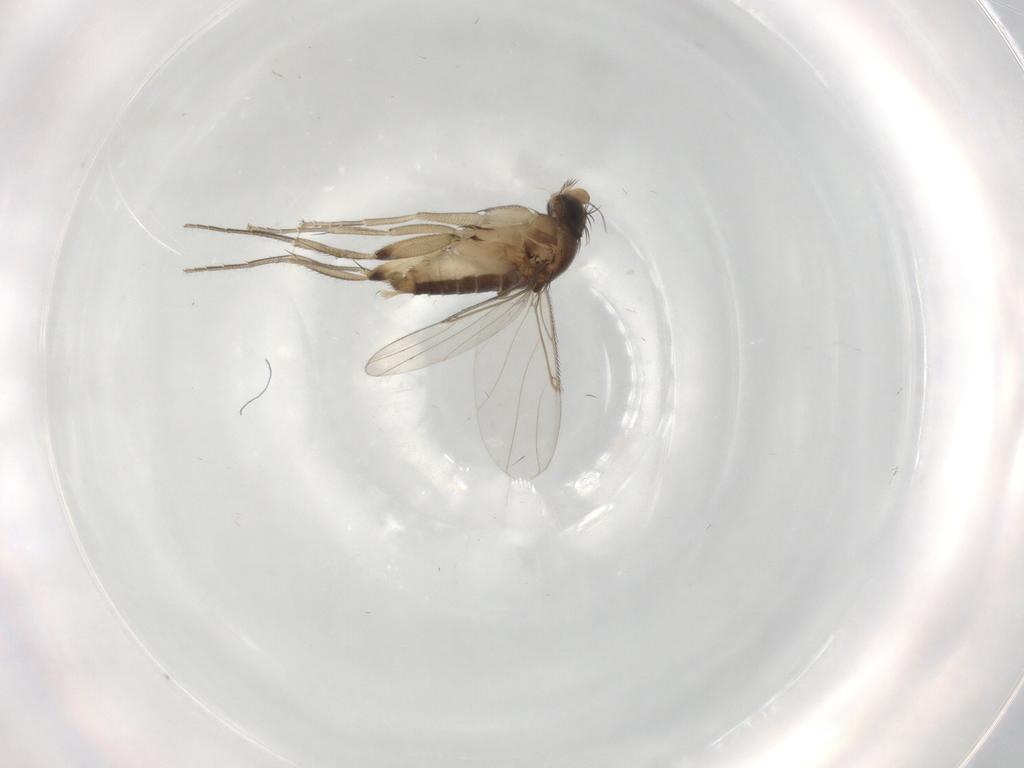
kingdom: Animalia
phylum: Arthropoda
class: Insecta
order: Diptera
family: Phoridae
